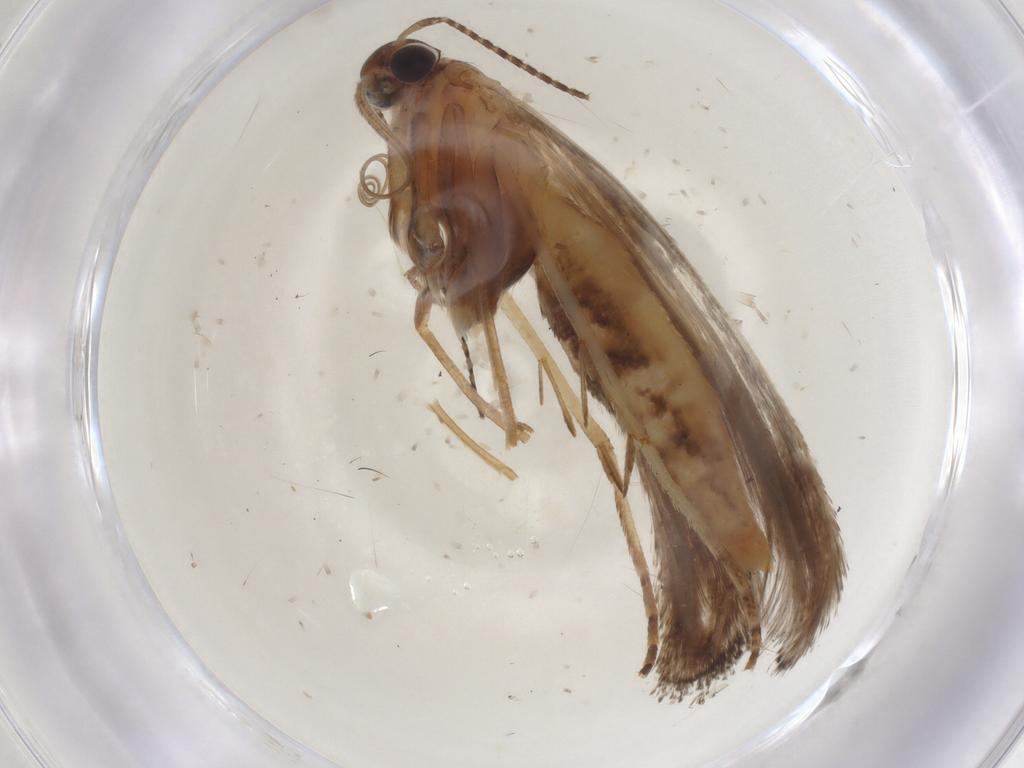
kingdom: Animalia
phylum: Arthropoda
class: Insecta
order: Lepidoptera
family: Gelechiidae
